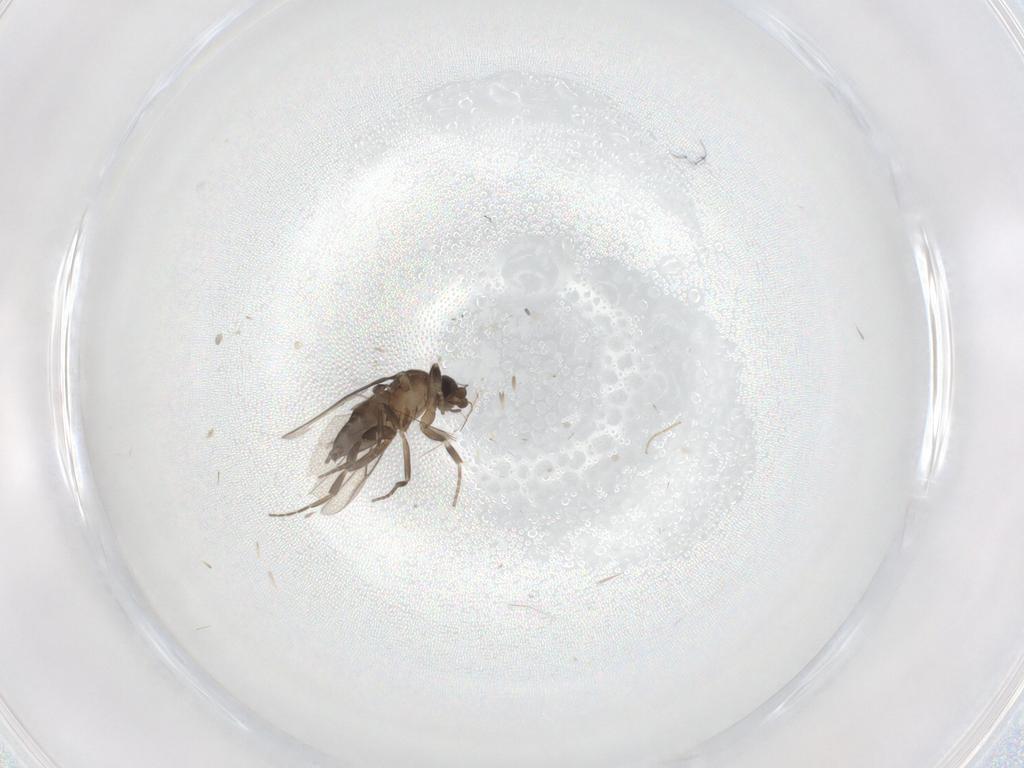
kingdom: Animalia
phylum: Arthropoda
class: Insecta
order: Diptera
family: Chironomidae
